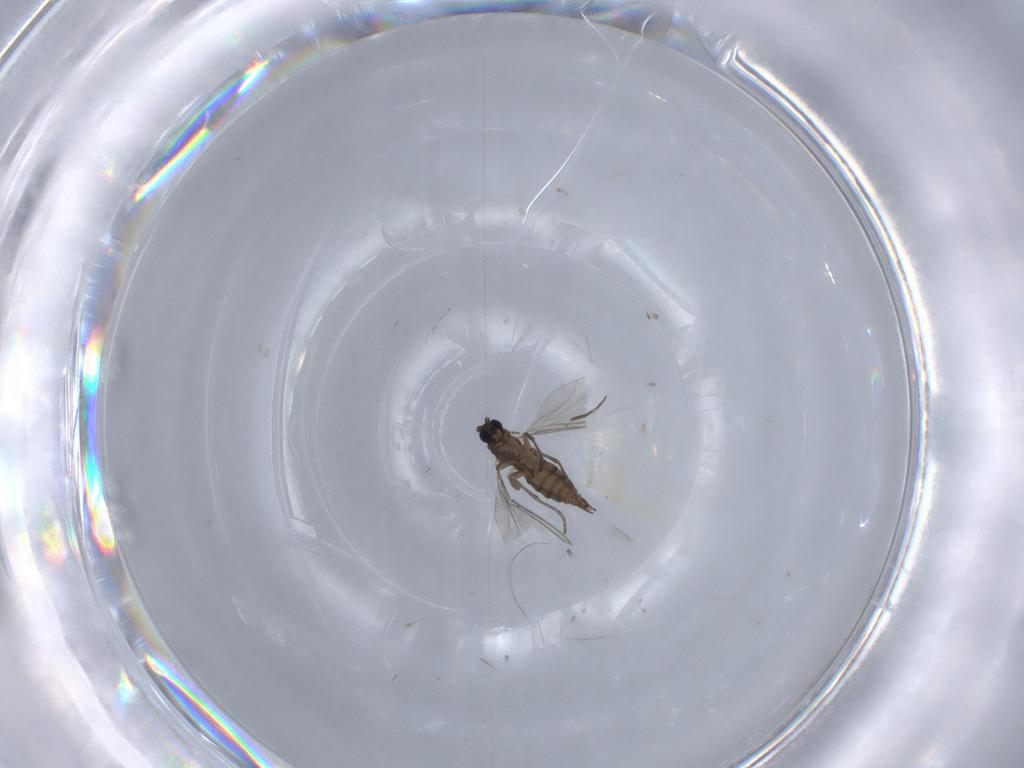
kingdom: Animalia
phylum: Arthropoda
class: Insecta
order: Diptera
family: Sciaridae
